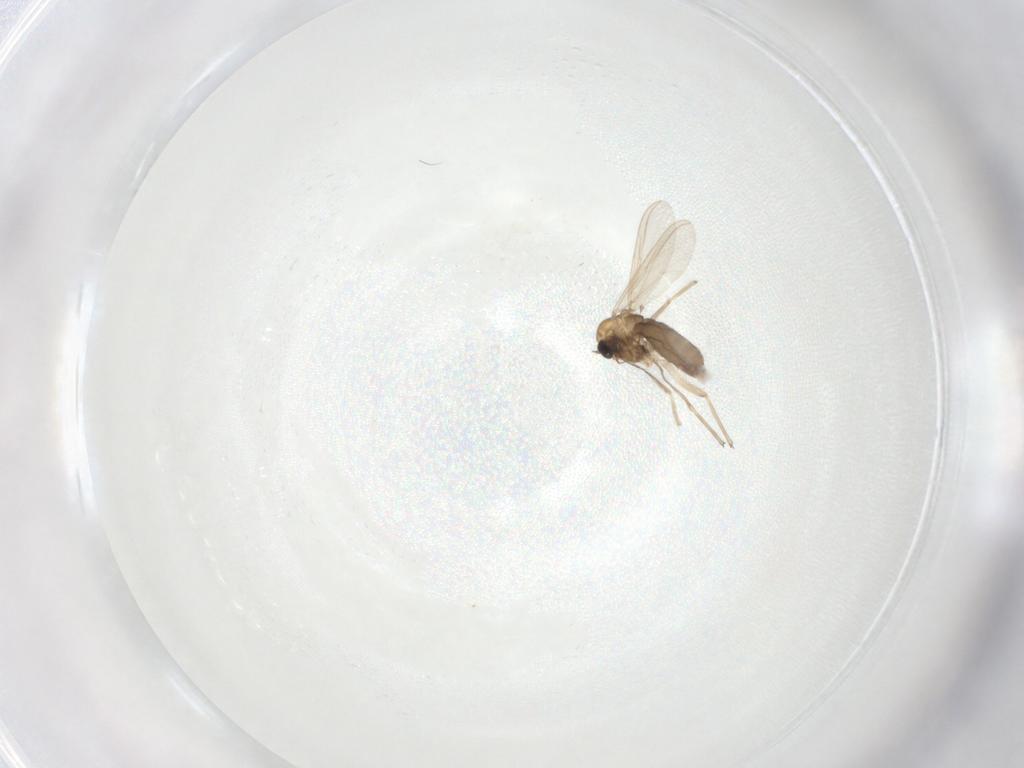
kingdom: Animalia
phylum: Arthropoda
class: Insecta
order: Diptera
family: Chironomidae
